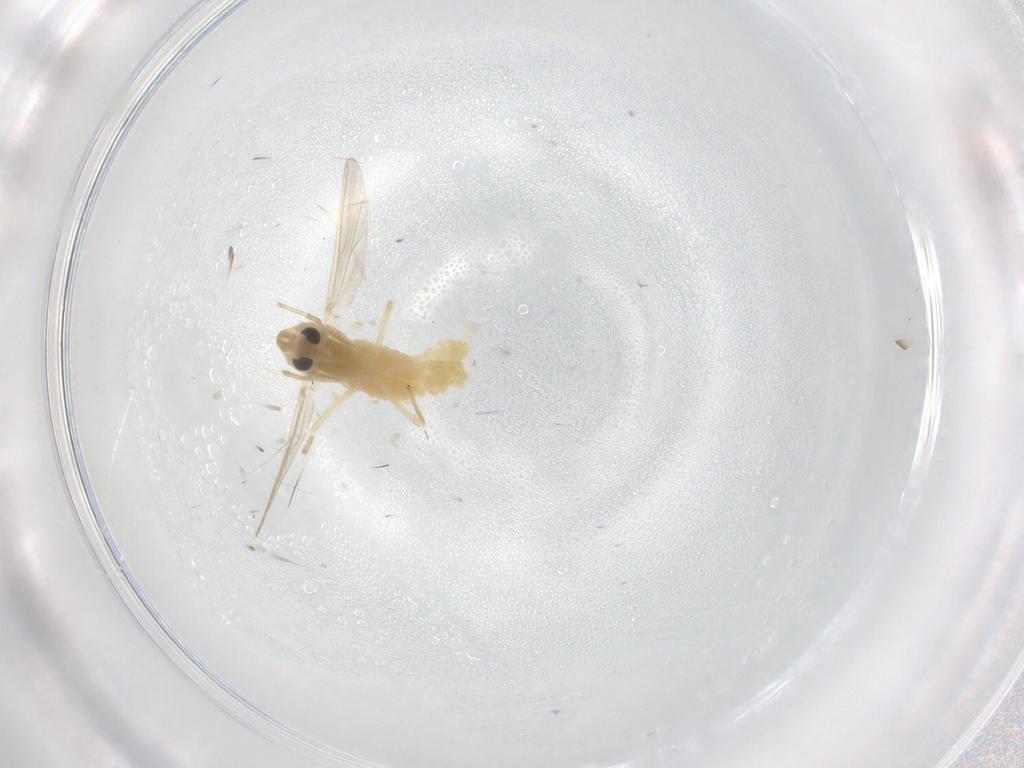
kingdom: Animalia
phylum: Arthropoda
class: Insecta
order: Diptera
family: Chironomidae
